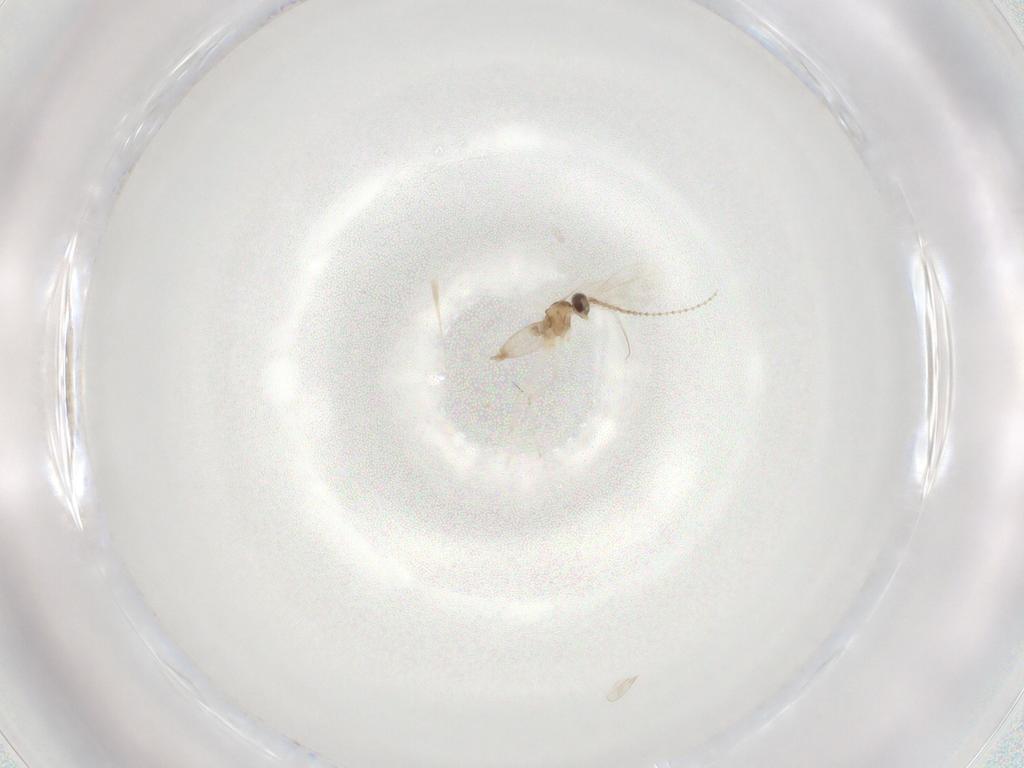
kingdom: Animalia
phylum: Arthropoda
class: Insecta
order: Diptera
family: Cecidomyiidae
